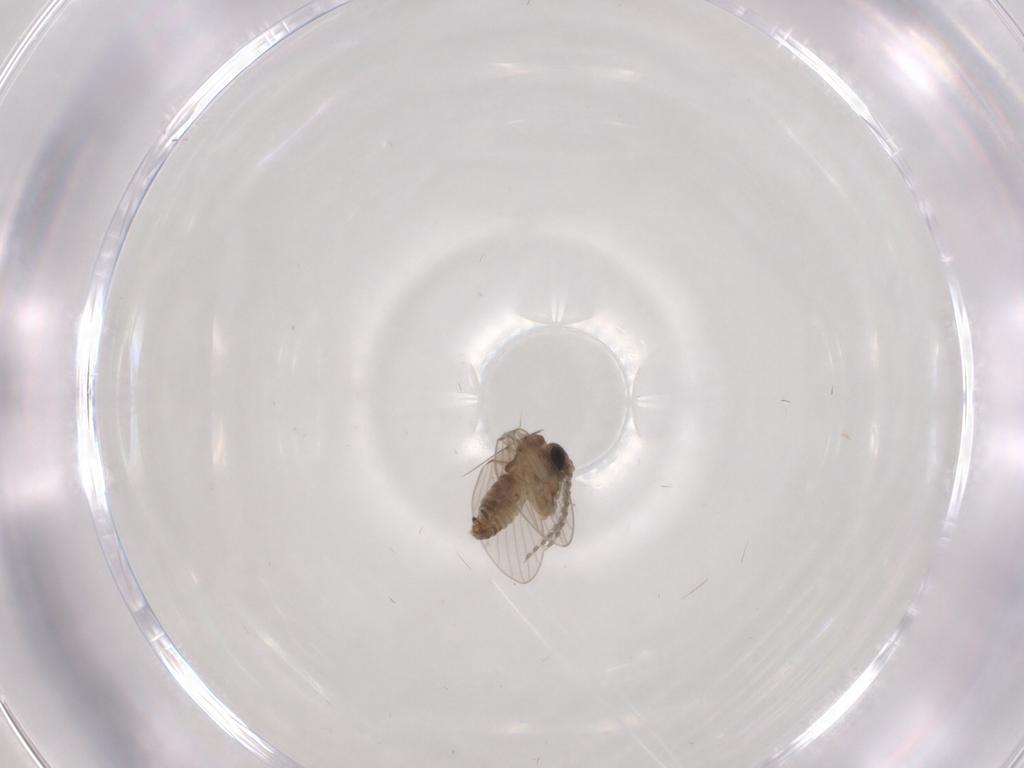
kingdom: Animalia
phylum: Arthropoda
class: Insecta
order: Diptera
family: Psychodidae
